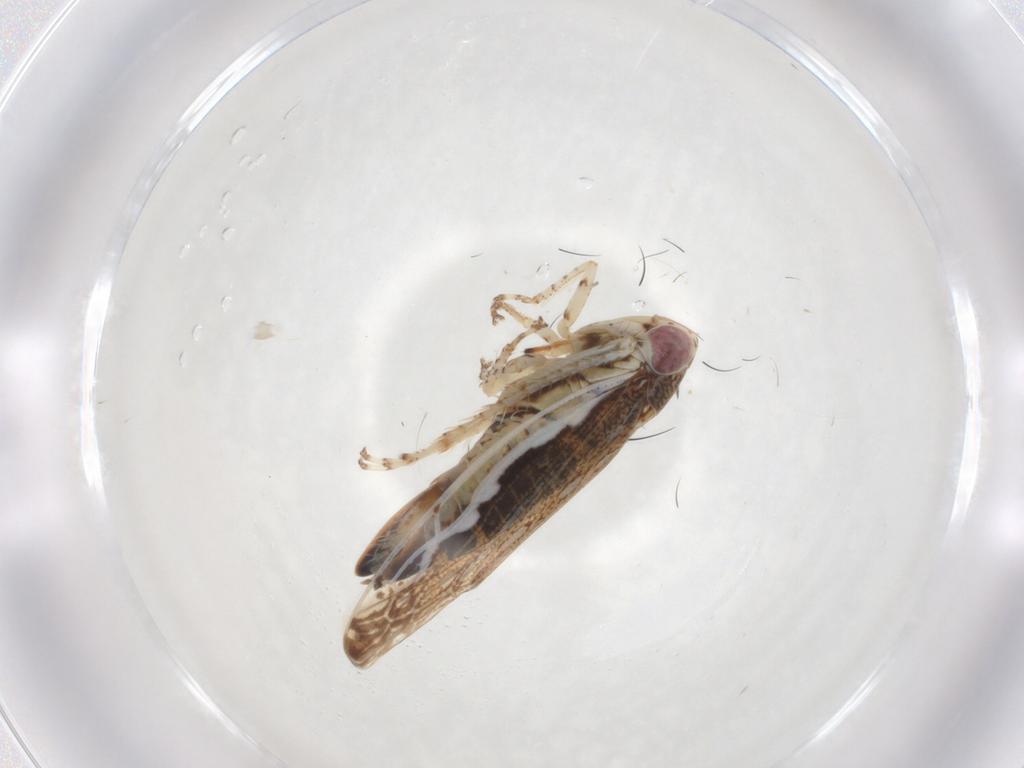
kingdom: Animalia
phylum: Arthropoda
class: Insecta
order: Hemiptera
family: Cicadellidae
